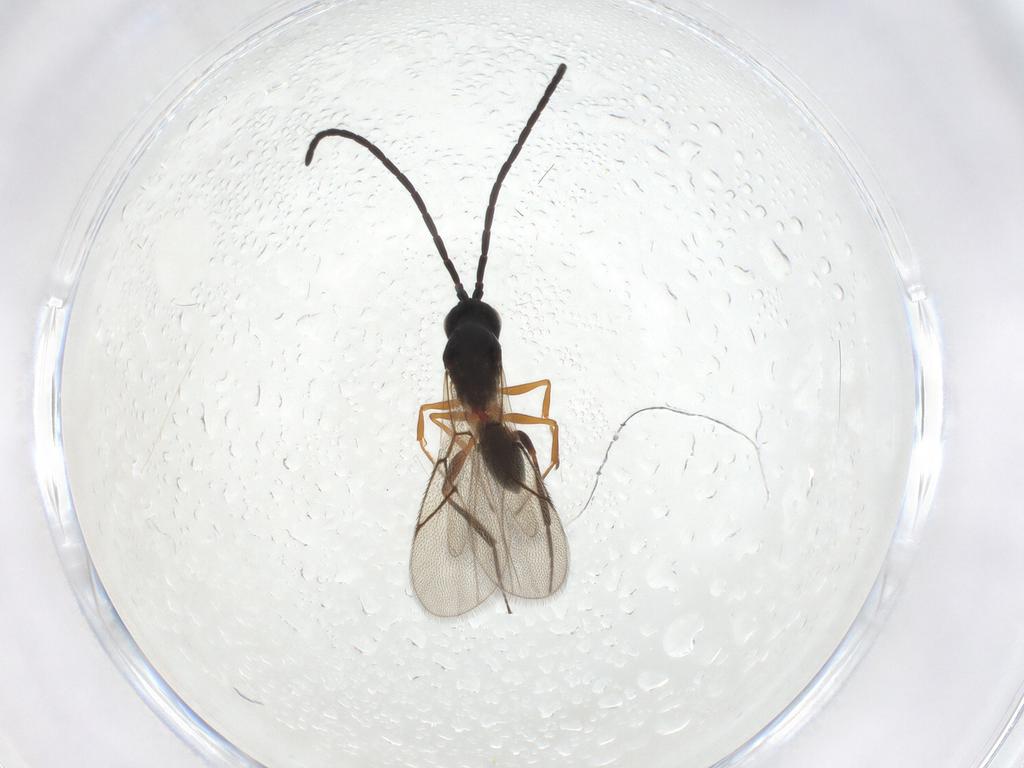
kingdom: Animalia
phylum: Arthropoda
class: Insecta
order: Hymenoptera
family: Figitidae
